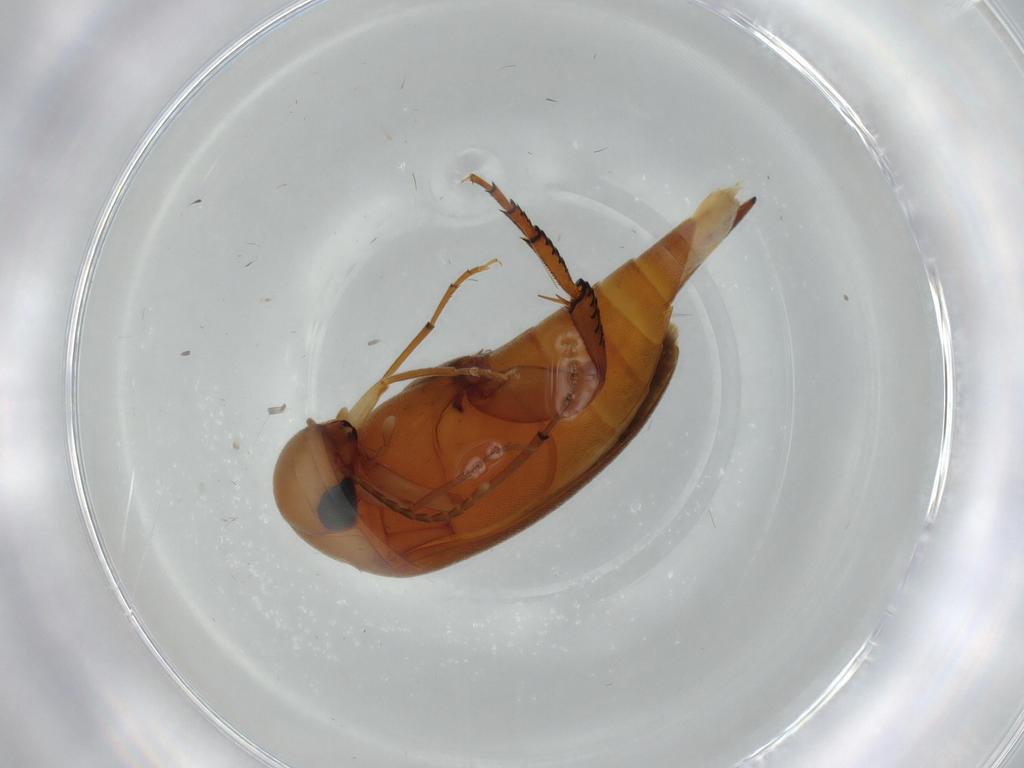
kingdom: Animalia
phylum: Arthropoda
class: Insecta
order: Coleoptera
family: Mordellidae
